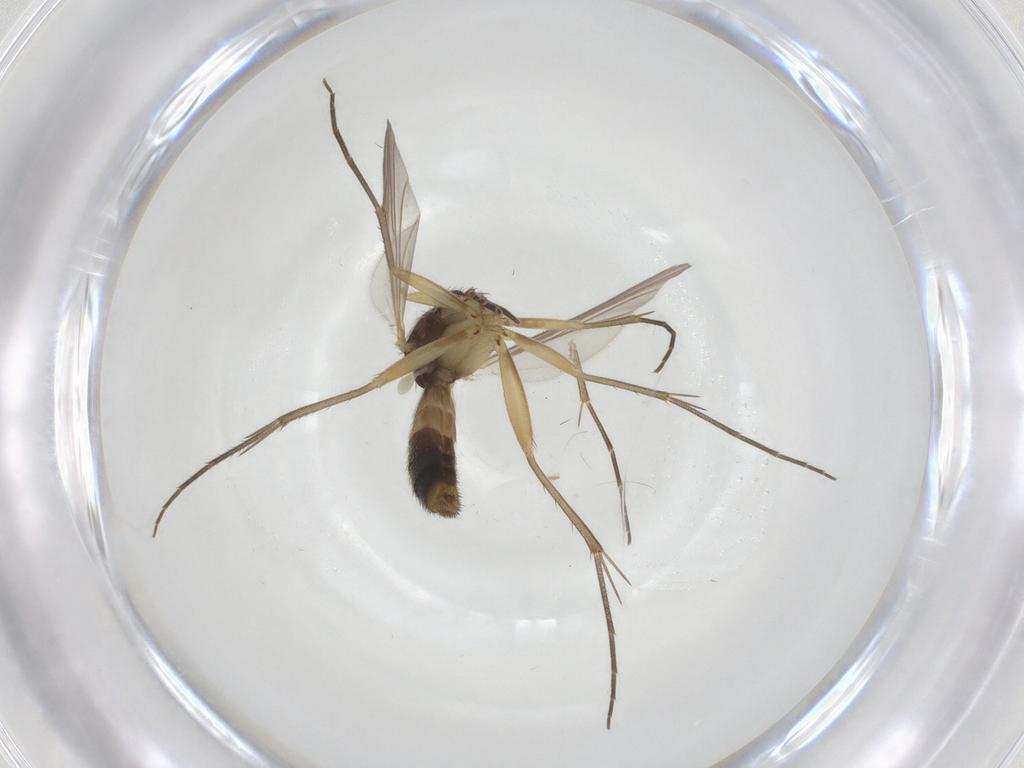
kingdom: Animalia
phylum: Arthropoda
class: Insecta
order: Diptera
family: Mycetophilidae
